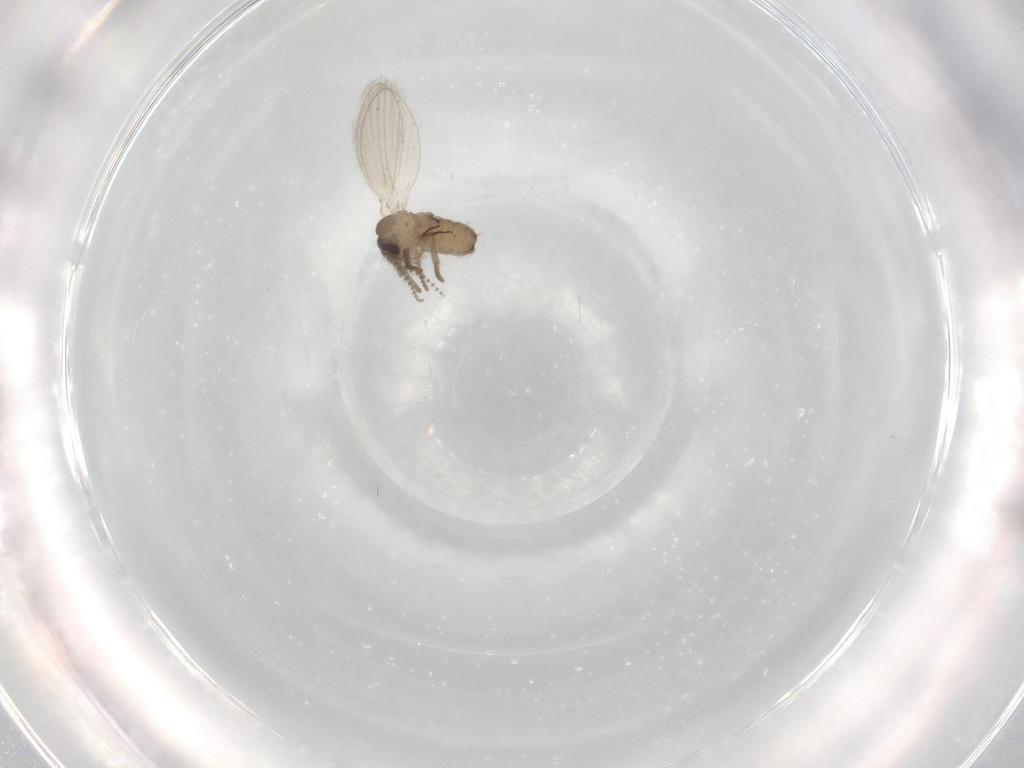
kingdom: Animalia
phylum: Arthropoda
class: Insecta
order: Diptera
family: Psychodidae
